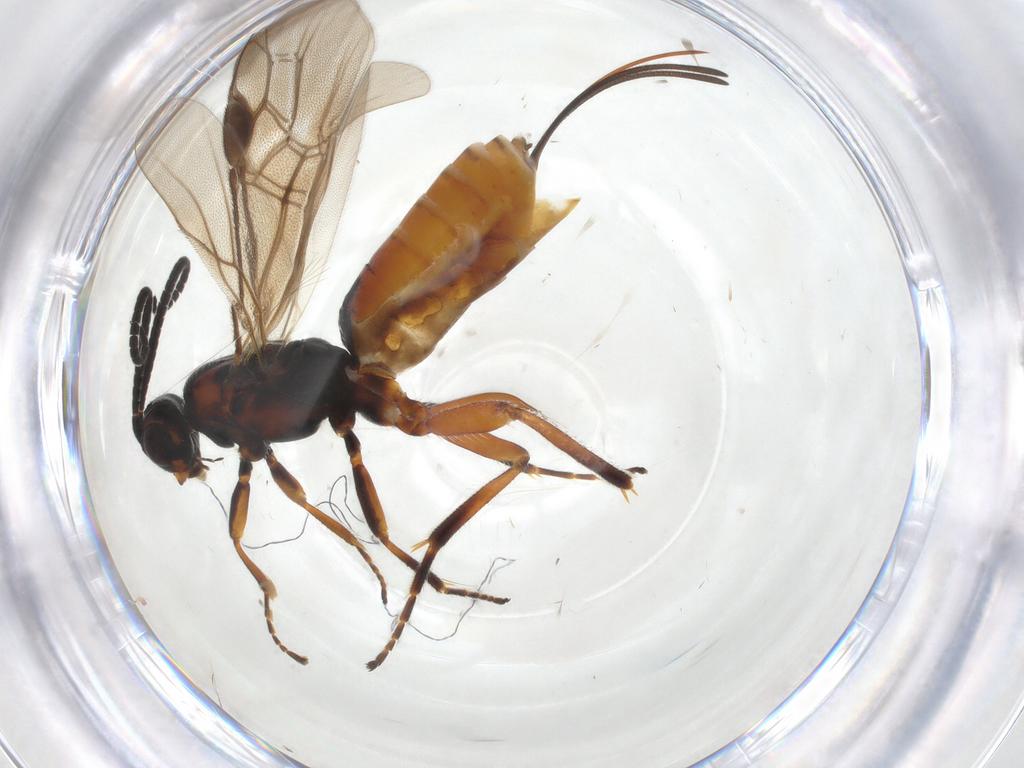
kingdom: Animalia
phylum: Arthropoda
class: Insecta
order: Hymenoptera
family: Braconidae
